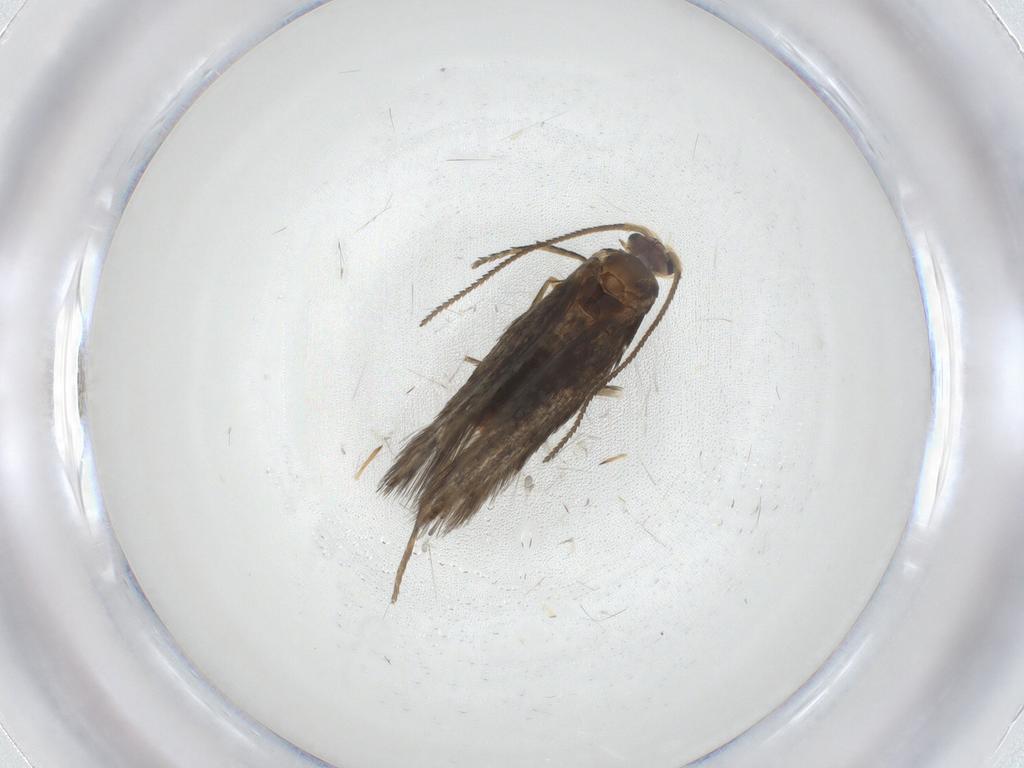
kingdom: Animalia
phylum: Arthropoda
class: Insecta
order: Lepidoptera
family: Nepticulidae
